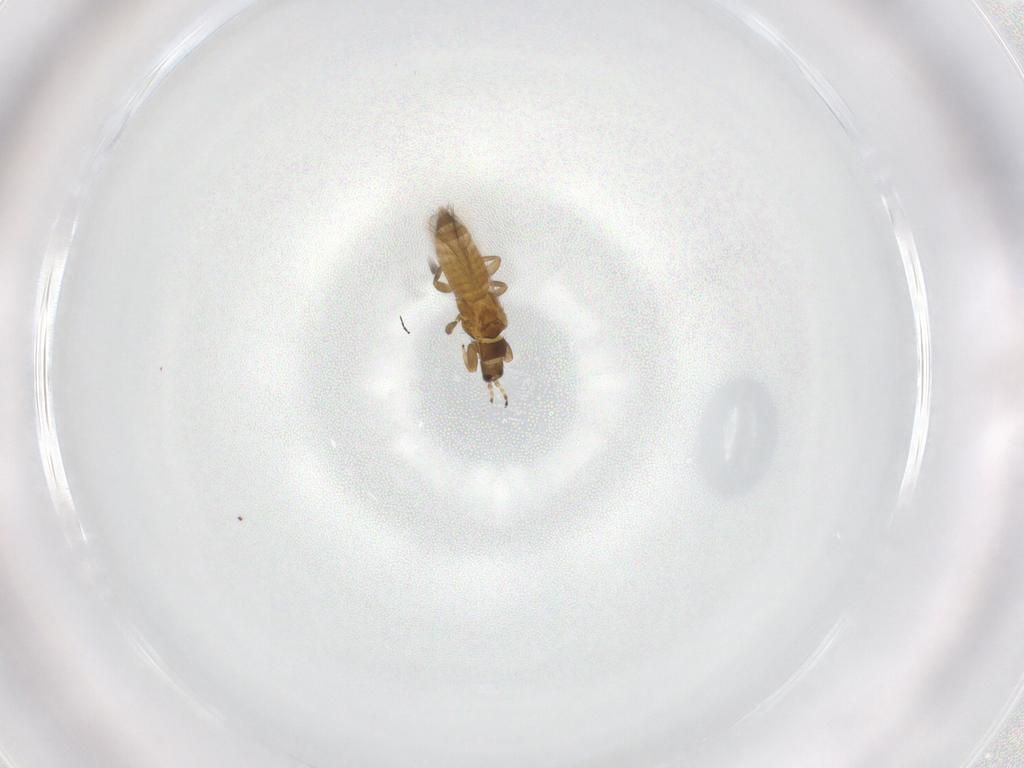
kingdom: Animalia
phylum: Arthropoda
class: Insecta
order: Thysanoptera
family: Aeolothripidae
